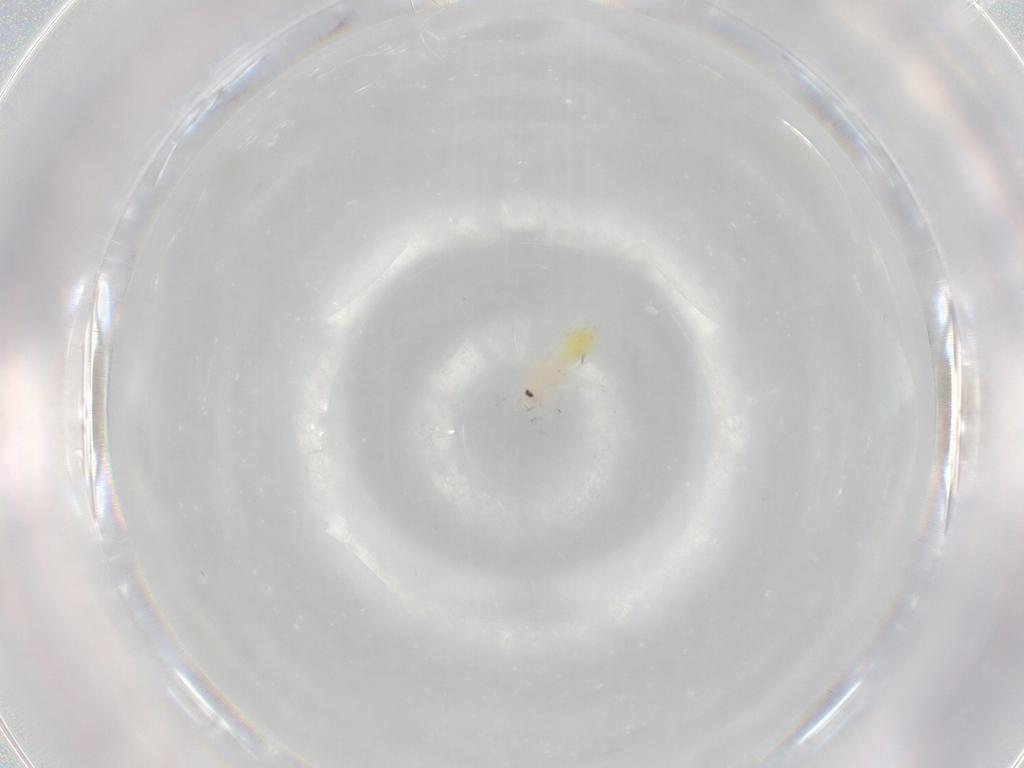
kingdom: Animalia
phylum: Arthropoda
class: Insecta
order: Hemiptera
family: Aleyrodidae
